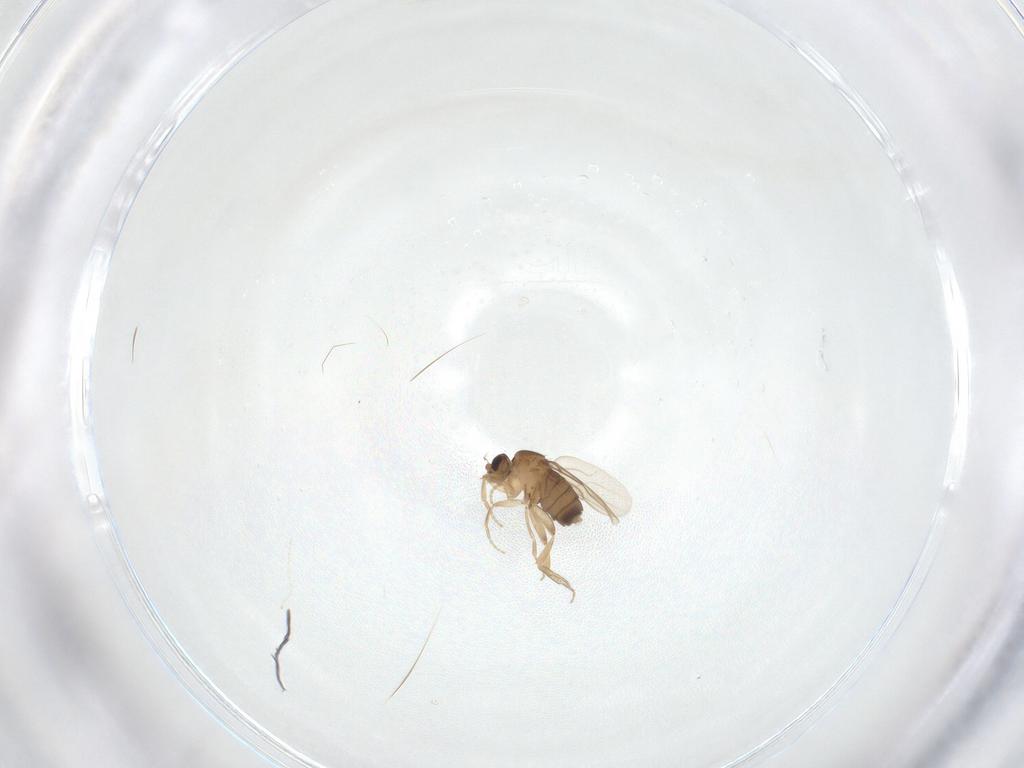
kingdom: Animalia
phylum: Arthropoda
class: Insecta
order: Diptera
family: Phoridae
